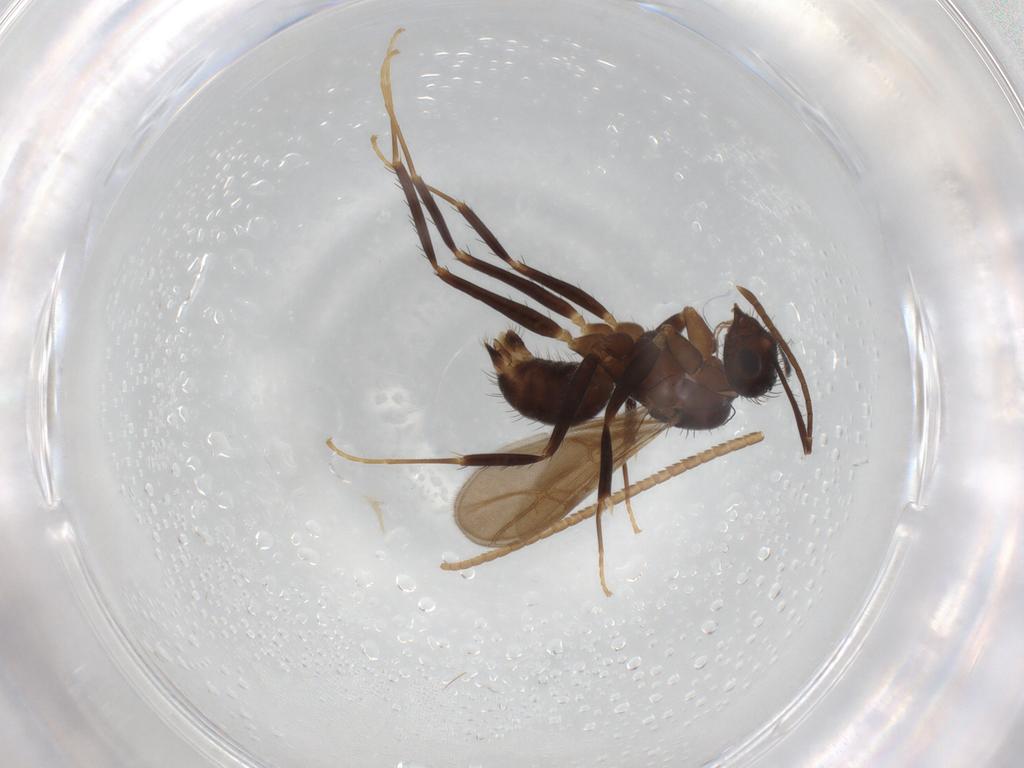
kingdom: Animalia
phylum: Arthropoda
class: Insecta
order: Hymenoptera
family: Formicidae
